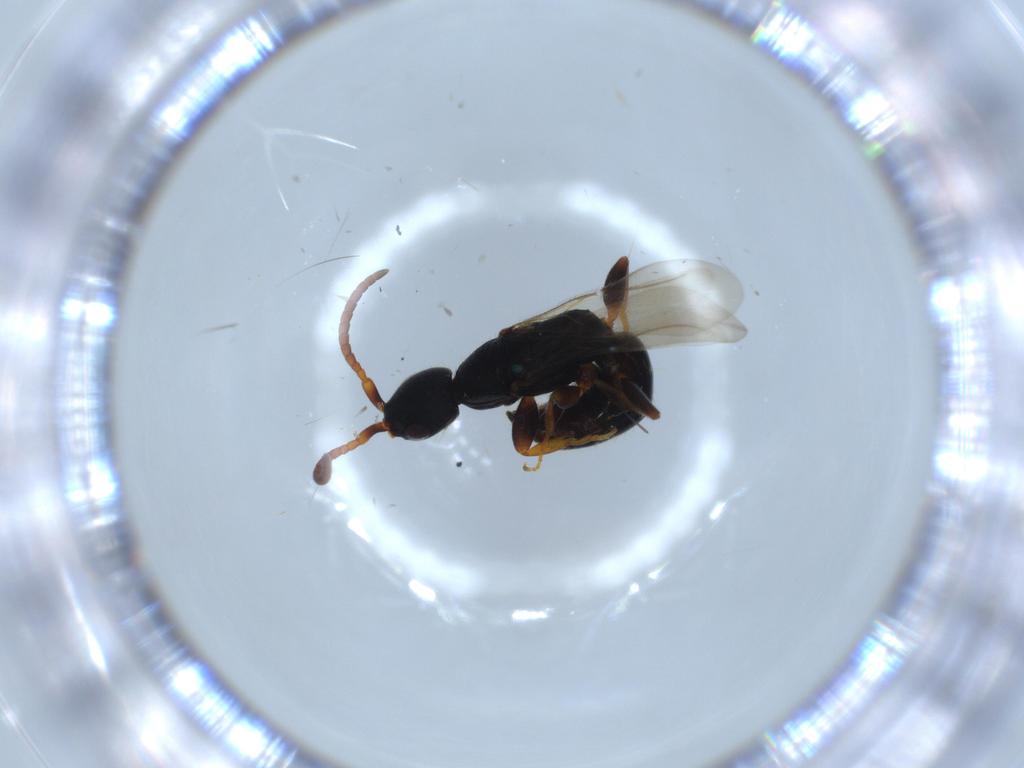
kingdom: Animalia
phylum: Arthropoda
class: Insecta
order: Hymenoptera
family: Bethylidae
